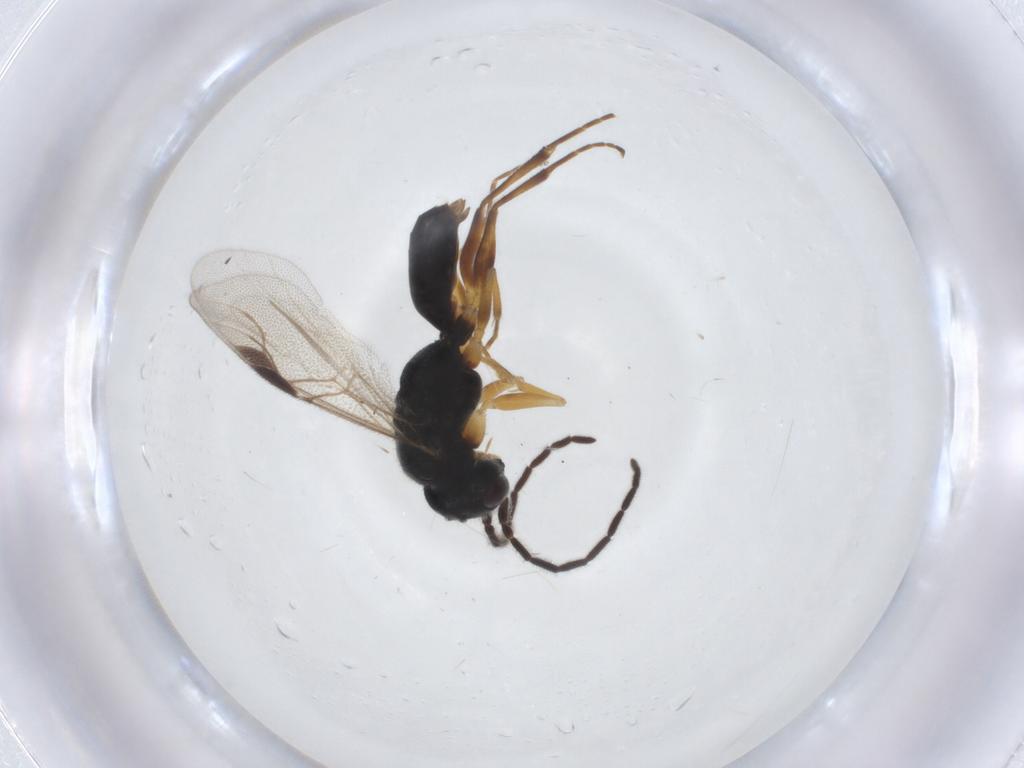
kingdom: Animalia
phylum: Arthropoda
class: Insecta
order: Hymenoptera
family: Dryinidae
